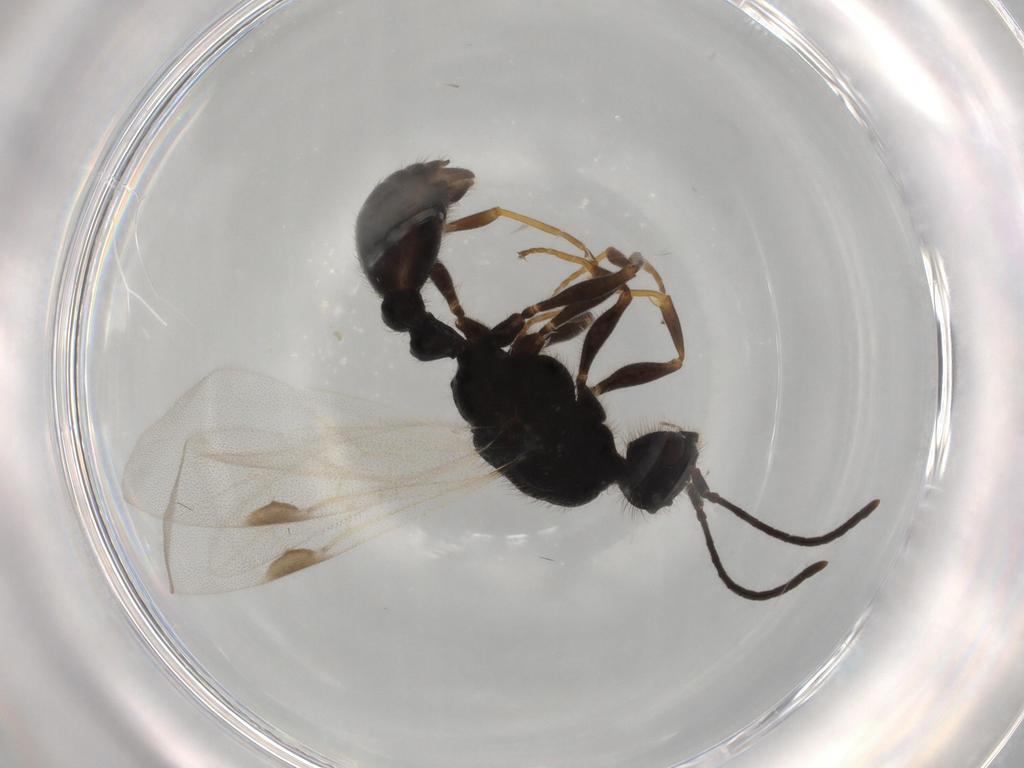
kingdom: Animalia
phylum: Arthropoda
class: Insecta
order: Hymenoptera
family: Formicidae
